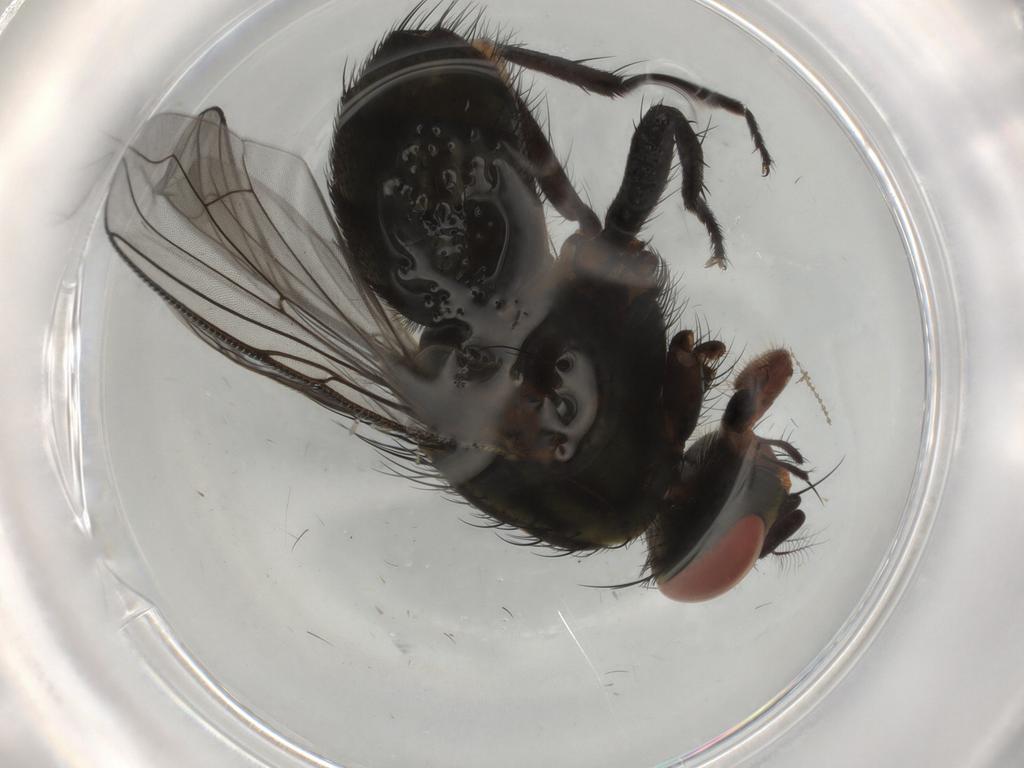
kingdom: Animalia
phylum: Arthropoda
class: Insecta
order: Diptera
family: Sarcophagidae
